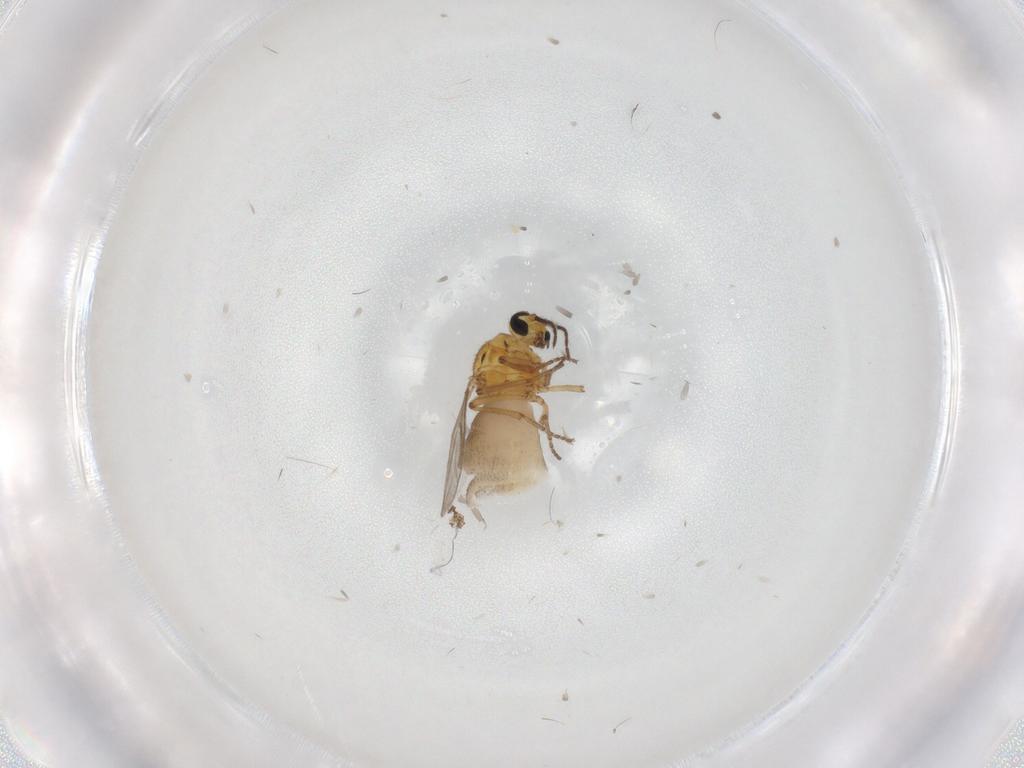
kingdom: Animalia
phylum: Arthropoda
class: Insecta
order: Diptera
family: Ceratopogonidae
